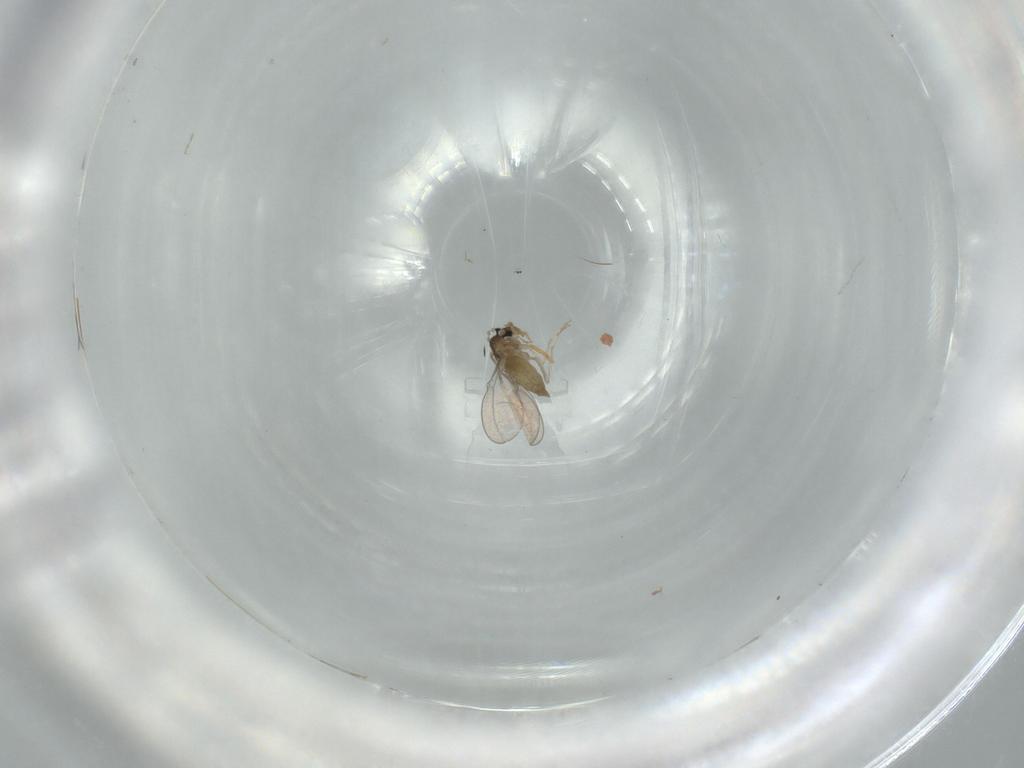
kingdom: Animalia
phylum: Arthropoda
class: Insecta
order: Diptera
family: Cecidomyiidae
